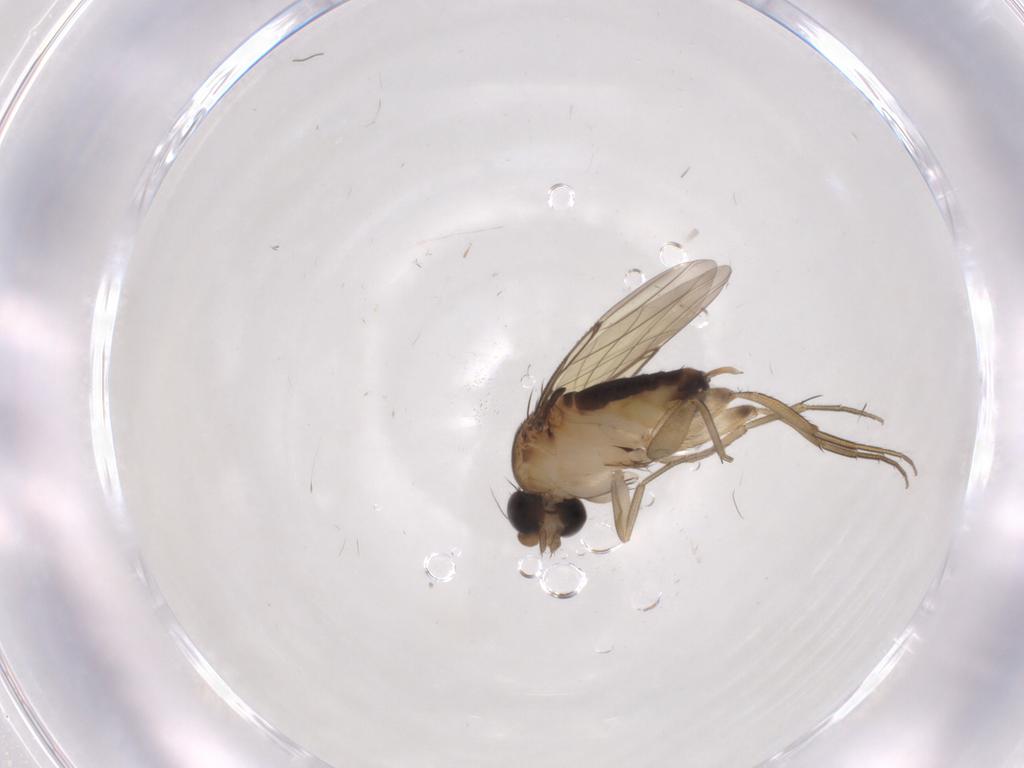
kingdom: Animalia
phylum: Arthropoda
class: Insecta
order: Diptera
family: Phoridae
